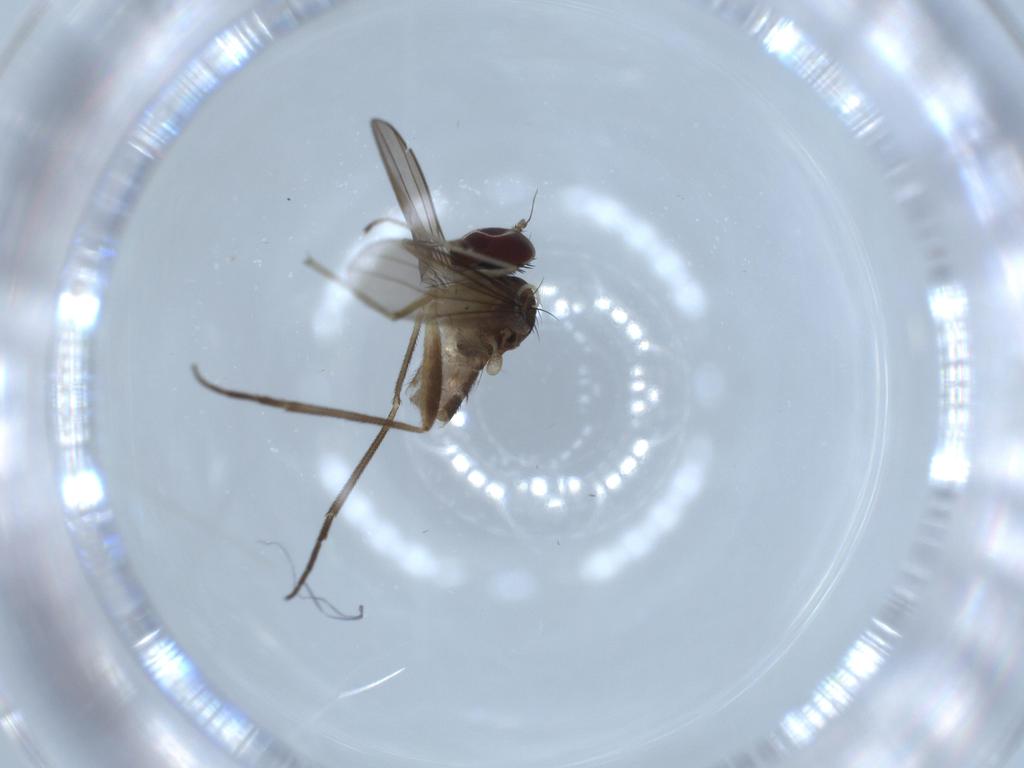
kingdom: Animalia
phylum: Arthropoda
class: Insecta
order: Diptera
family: Dolichopodidae
